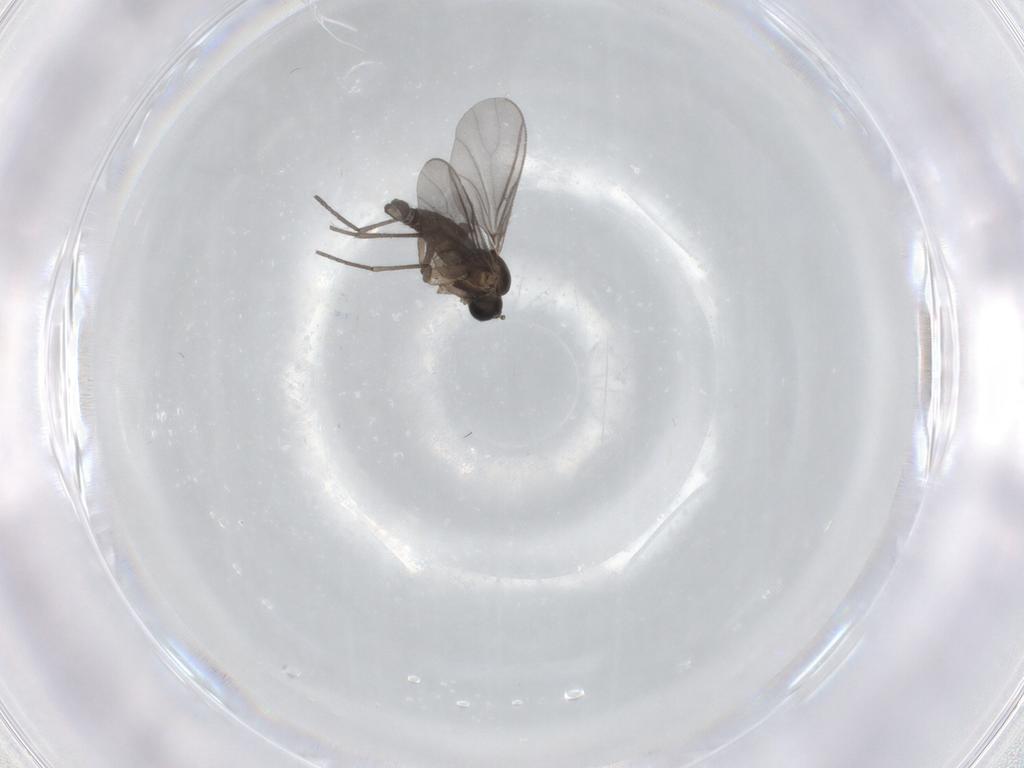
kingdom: Animalia
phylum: Arthropoda
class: Insecta
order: Diptera
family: Sciaridae
